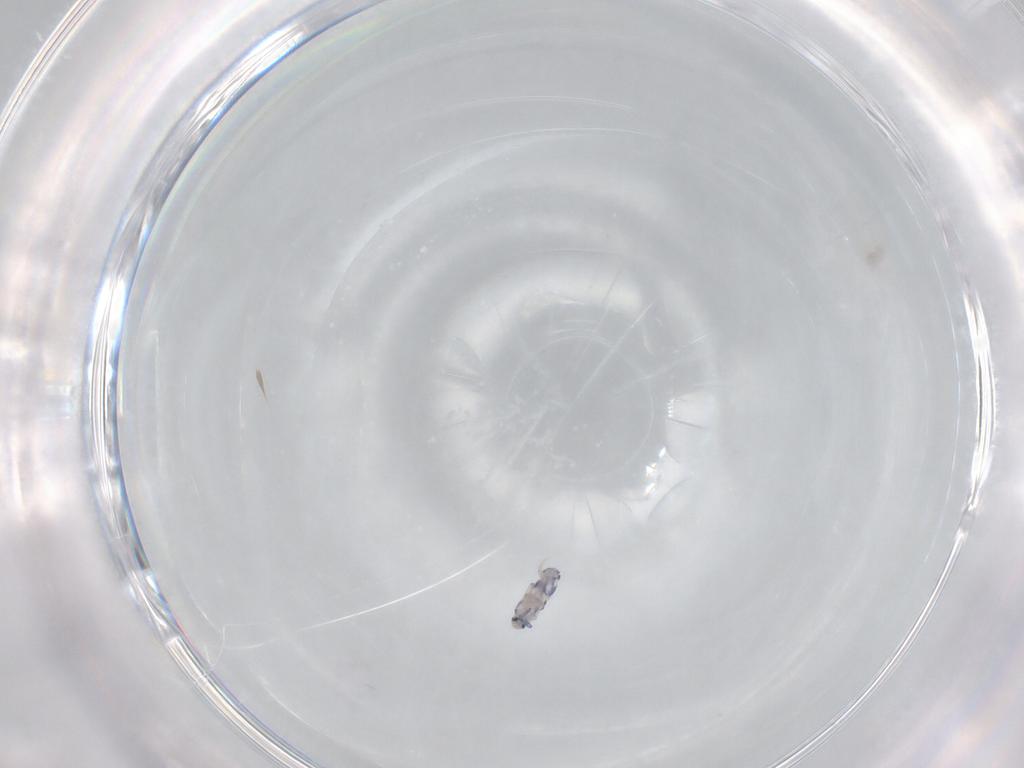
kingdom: Animalia
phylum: Arthropoda
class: Collembola
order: Entomobryomorpha
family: Entomobryidae
